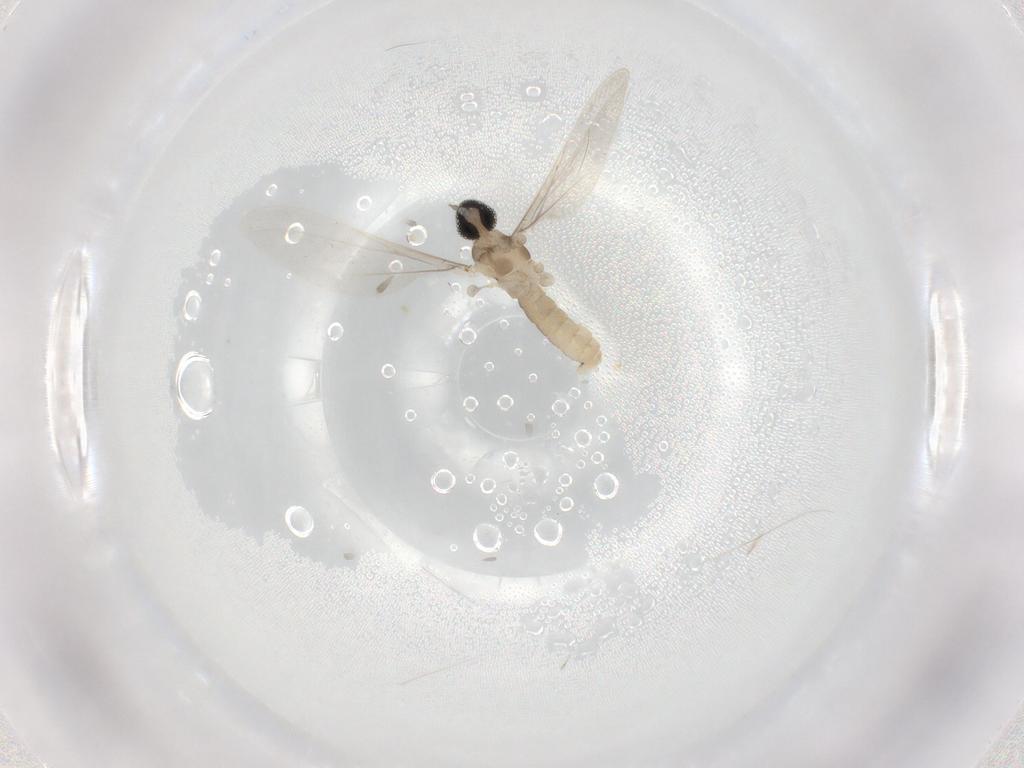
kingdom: Animalia
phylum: Arthropoda
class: Insecta
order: Diptera
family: Cecidomyiidae
